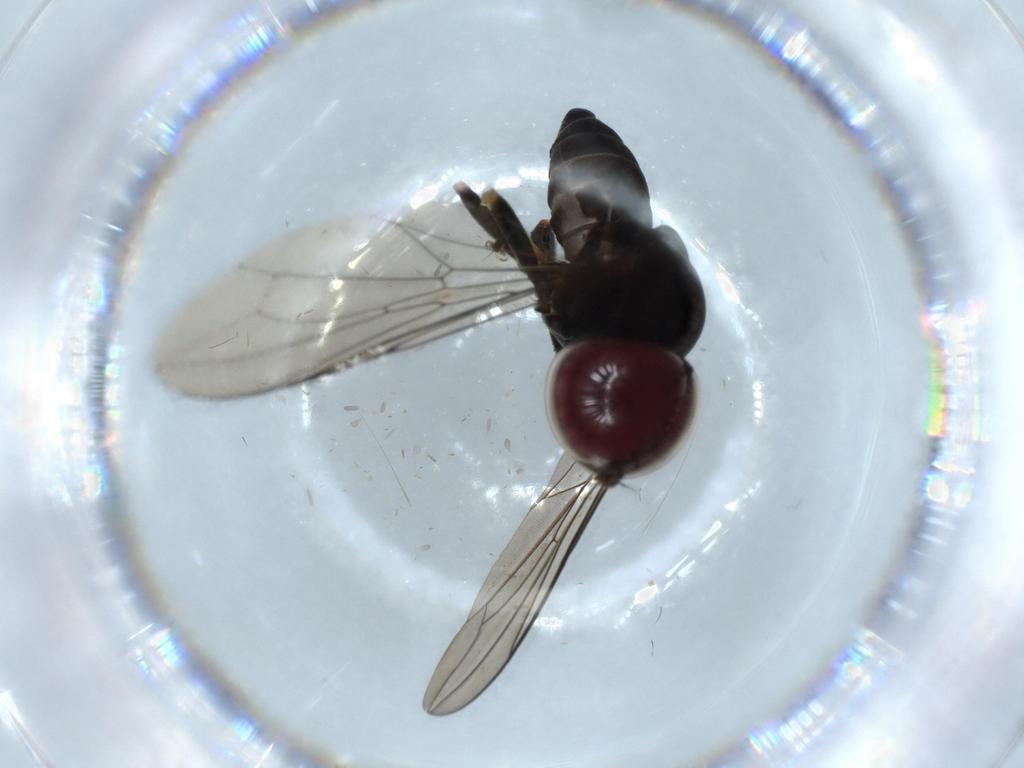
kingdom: Animalia
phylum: Arthropoda
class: Insecta
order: Diptera
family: Pipunculidae
